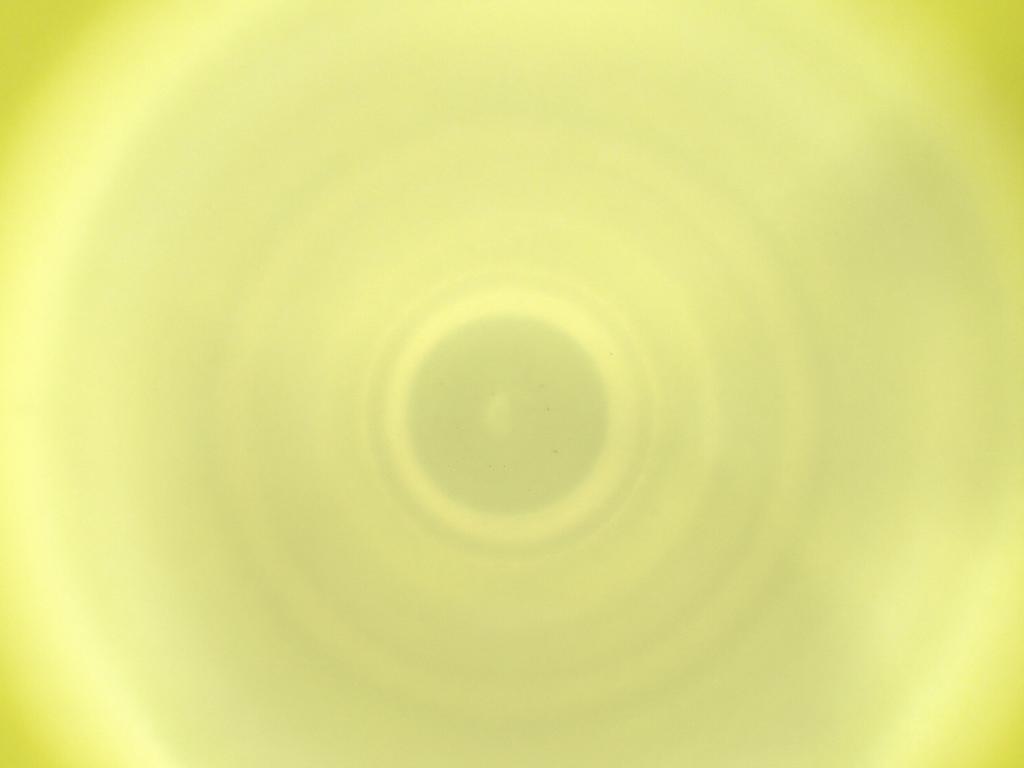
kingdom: Animalia
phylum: Arthropoda
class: Insecta
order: Diptera
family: Cecidomyiidae
